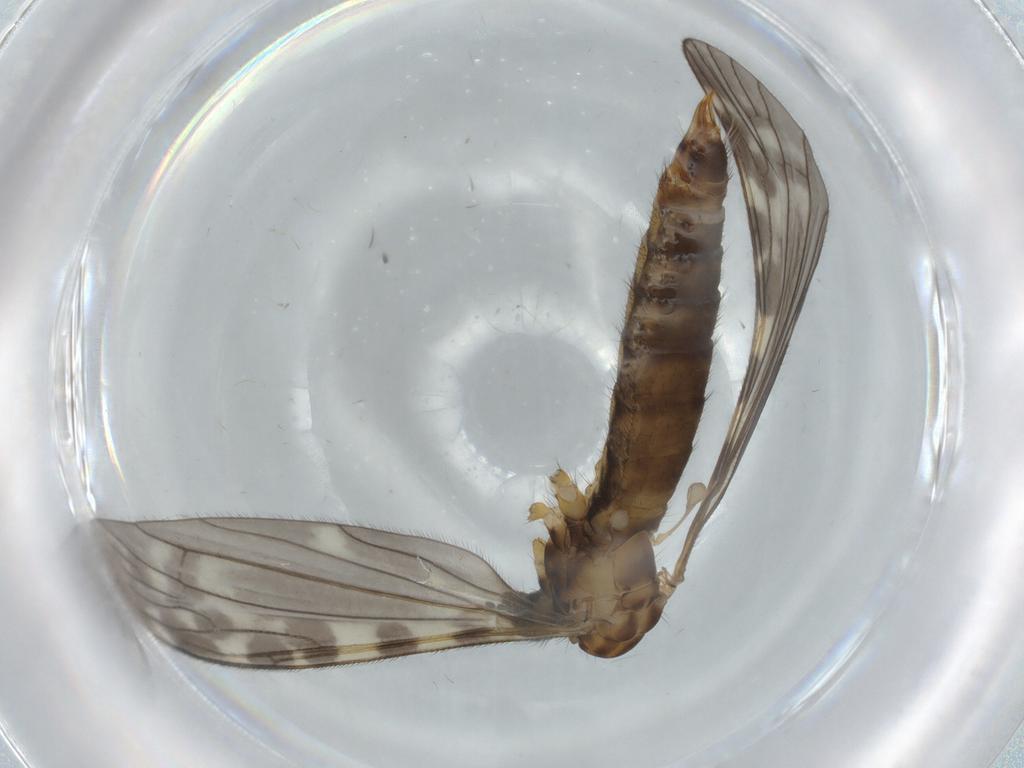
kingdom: Animalia
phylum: Arthropoda
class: Insecta
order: Diptera
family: Ceratopogonidae
